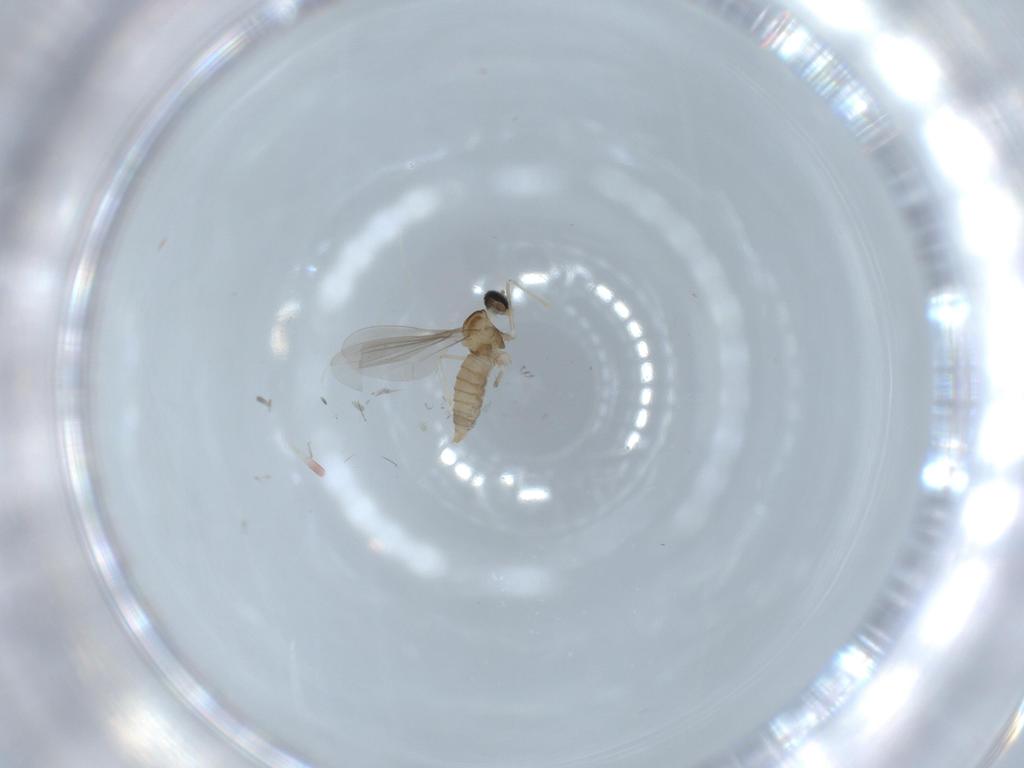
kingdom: Animalia
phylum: Arthropoda
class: Insecta
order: Diptera
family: Cecidomyiidae
